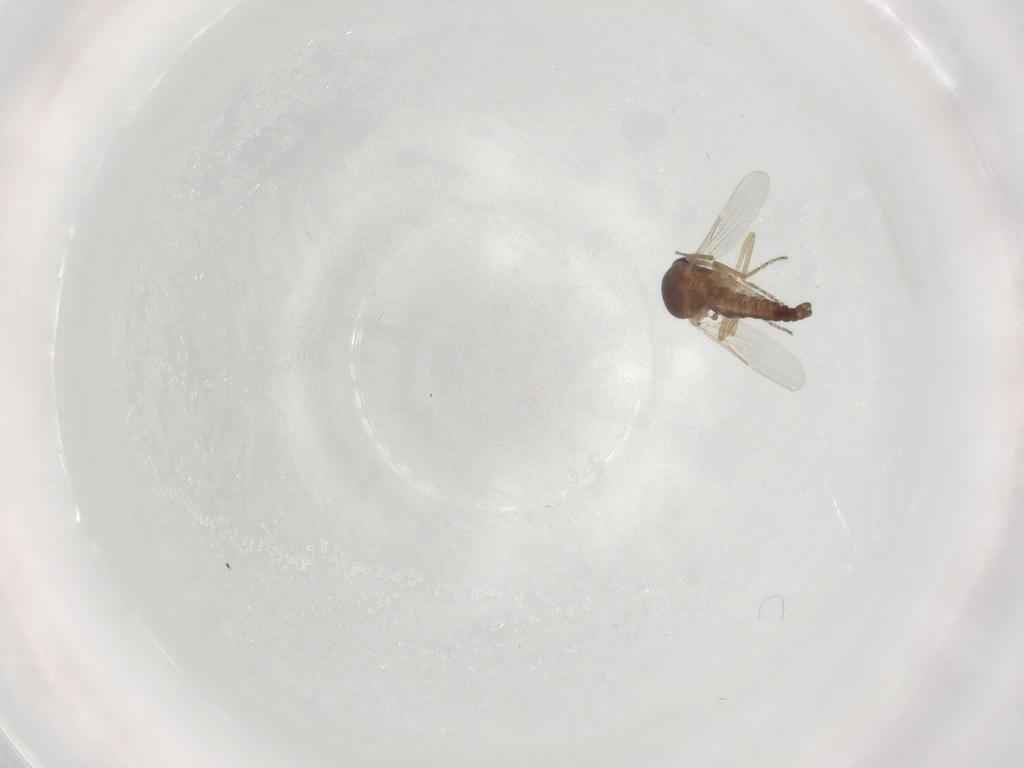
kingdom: Animalia
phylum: Arthropoda
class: Insecta
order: Diptera
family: Ceratopogonidae
